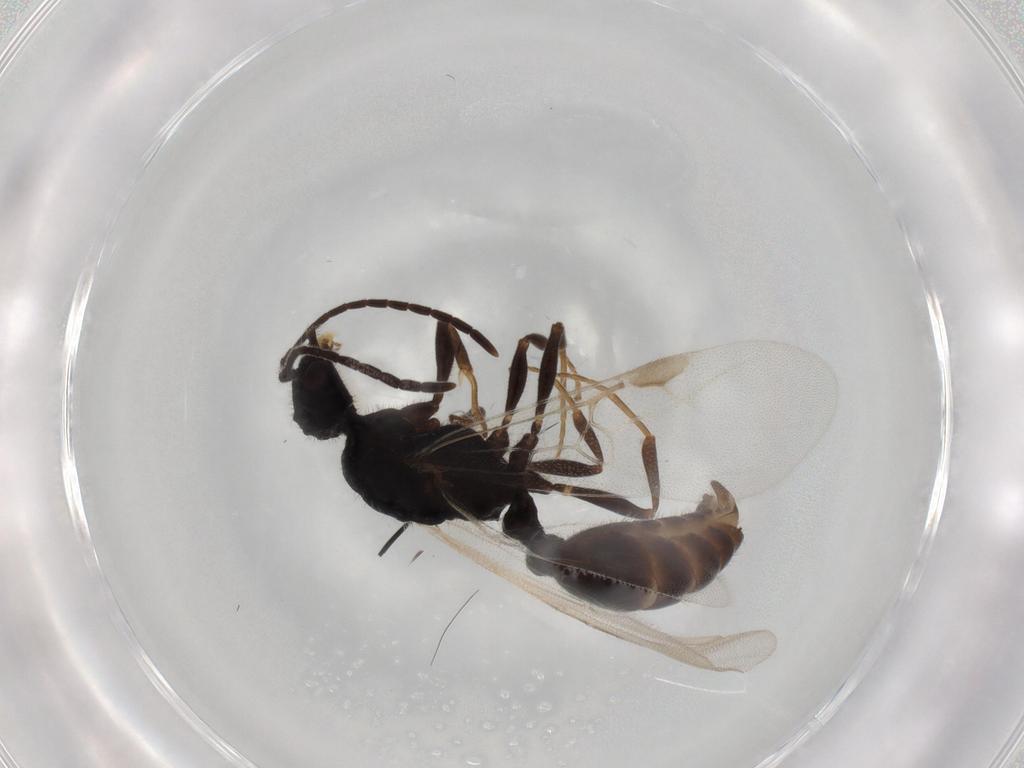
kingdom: Animalia
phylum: Arthropoda
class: Insecta
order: Hymenoptera
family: Formicidae
